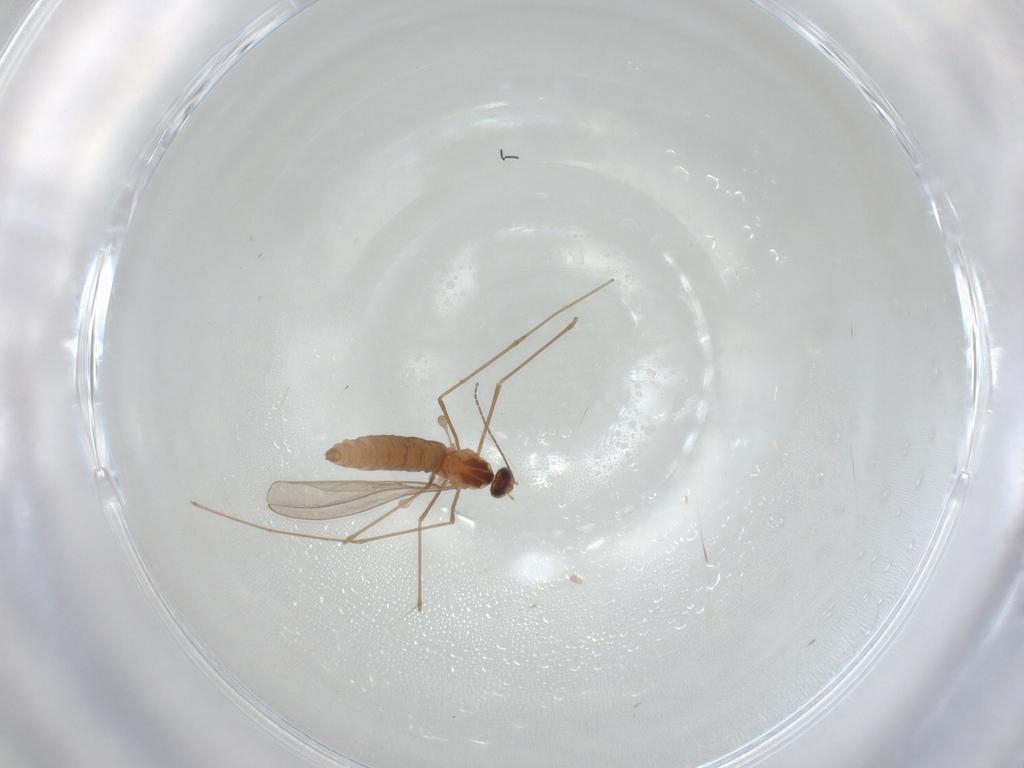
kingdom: Animalia
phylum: Arthropoda
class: Insecta
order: Diptera
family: Cecidomyiidae
